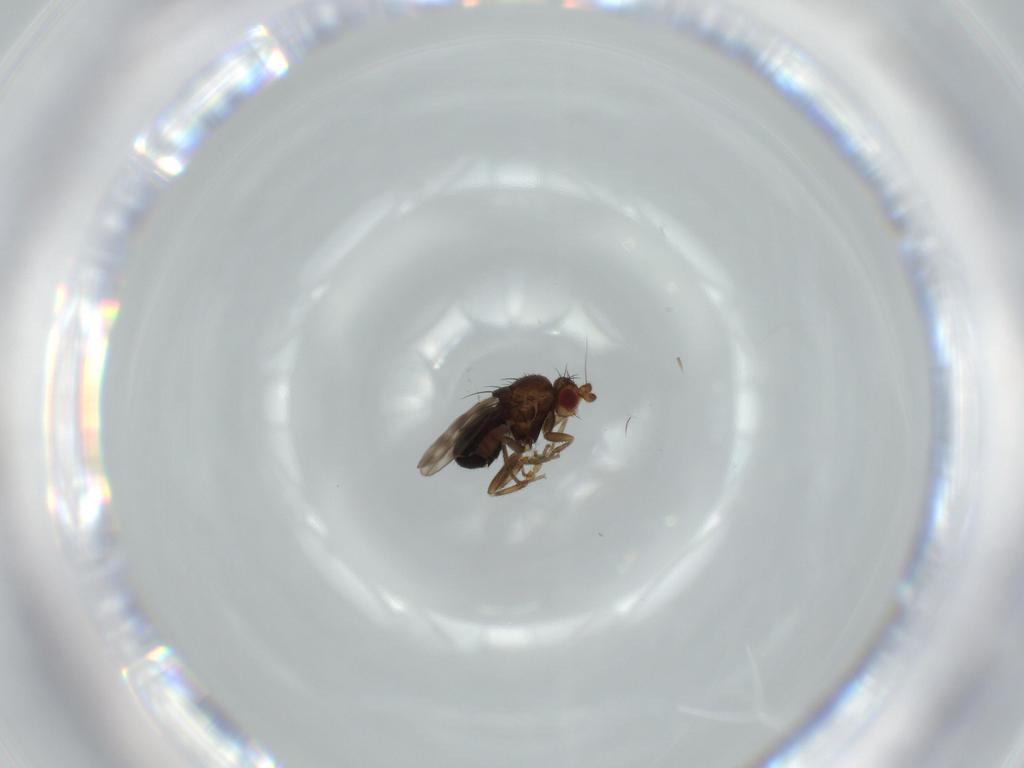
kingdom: Animalia
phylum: Arthropoda
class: Insecta
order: Diptera
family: Sphaeroceridae
